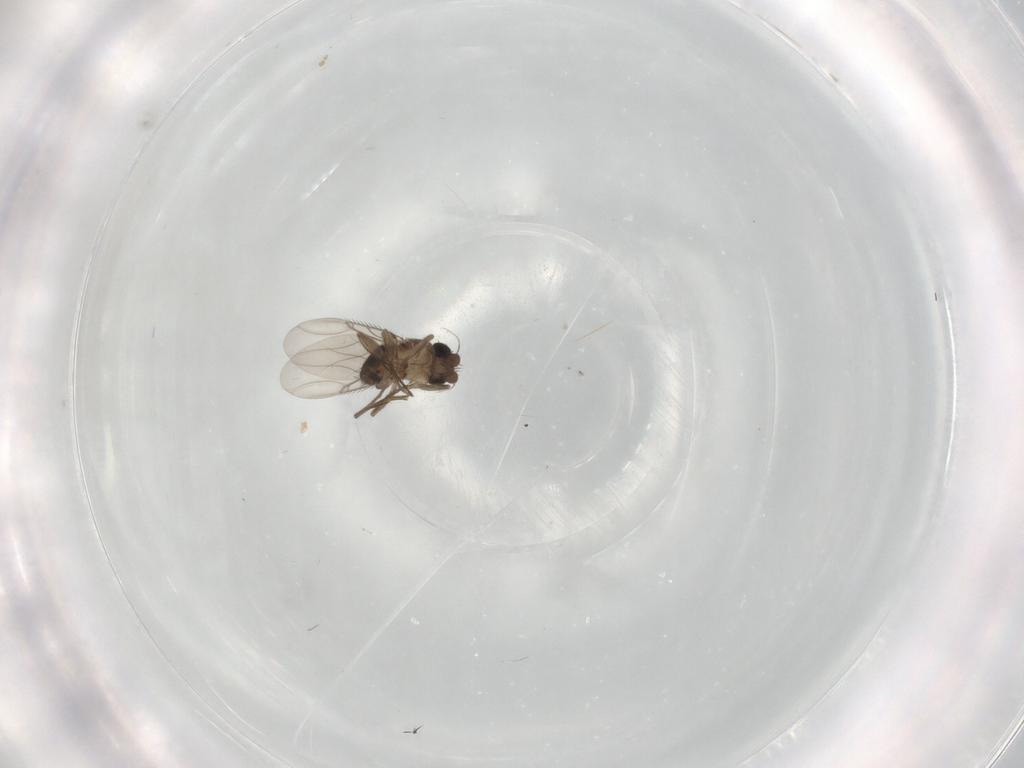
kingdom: Animalia
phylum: Arthropoda
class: Insecta
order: Diptera
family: Phoridae
